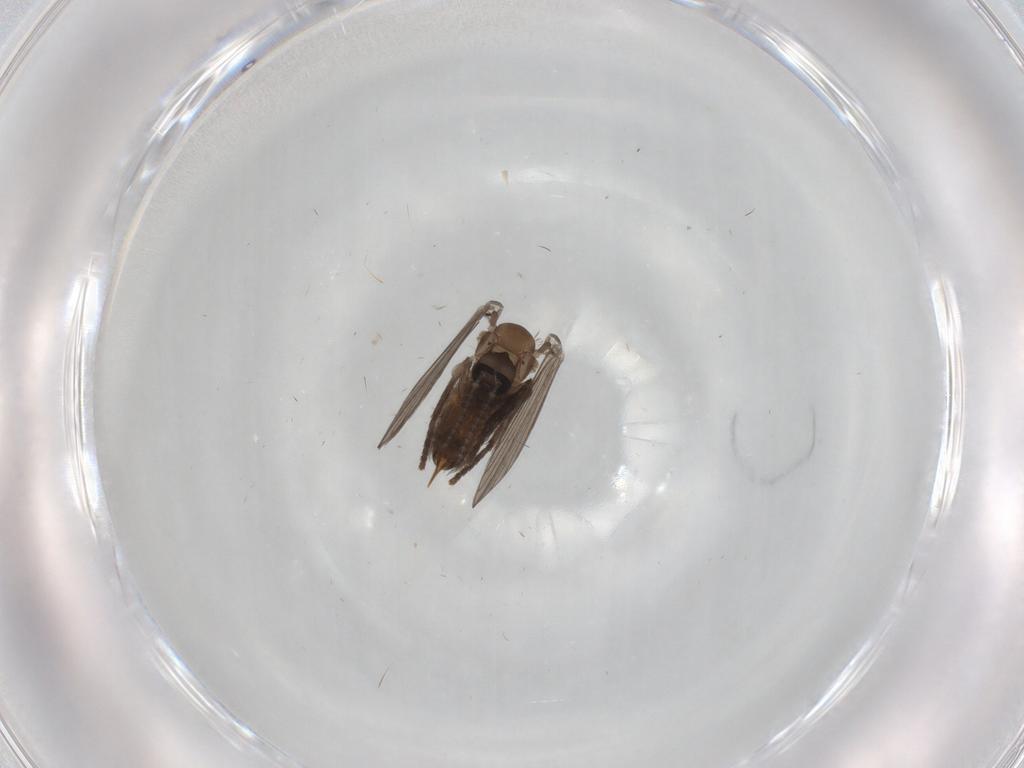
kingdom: Animalia
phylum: Arthropoda
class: Insecta
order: Diptera
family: Psychodidae
